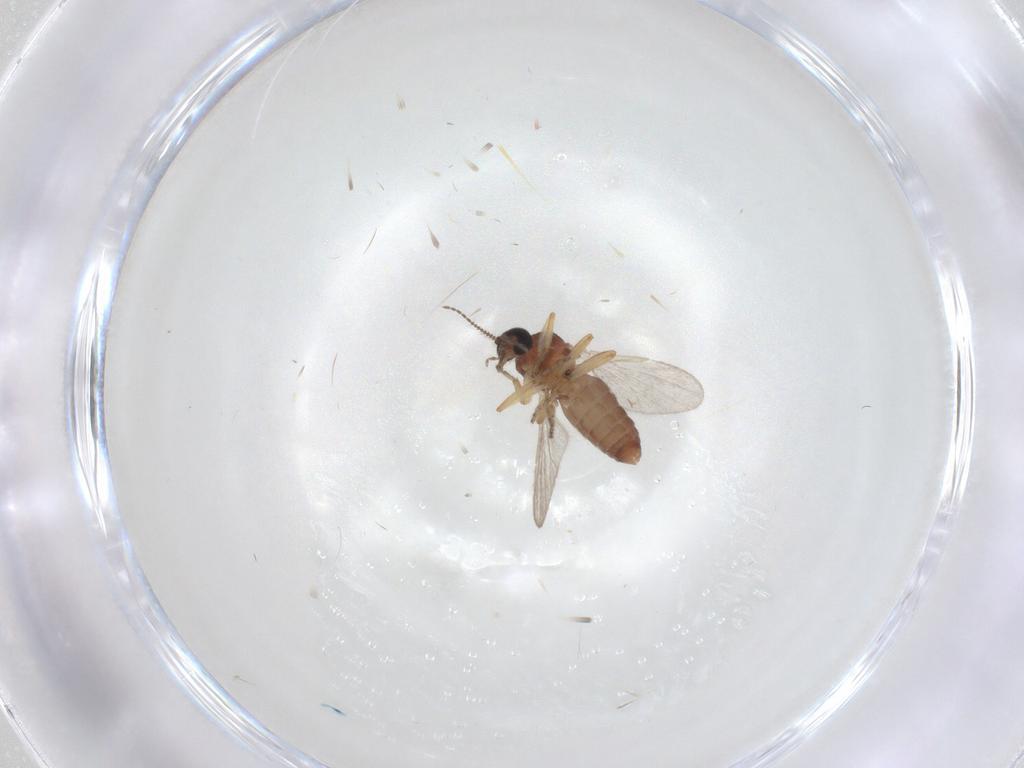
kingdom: Animalia
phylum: Arthropoda
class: Insecta
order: Diptera
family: Ceratopogonidae
